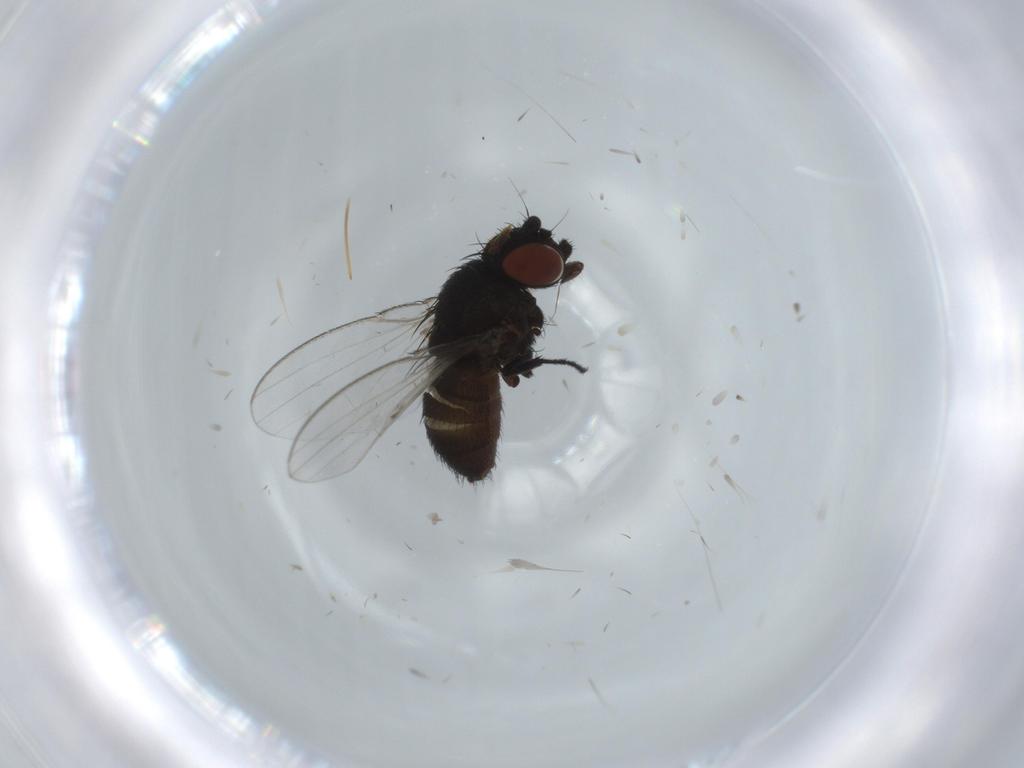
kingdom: Animalia
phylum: Arthropoda
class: Insecta
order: Diptera
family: Milichiidae
